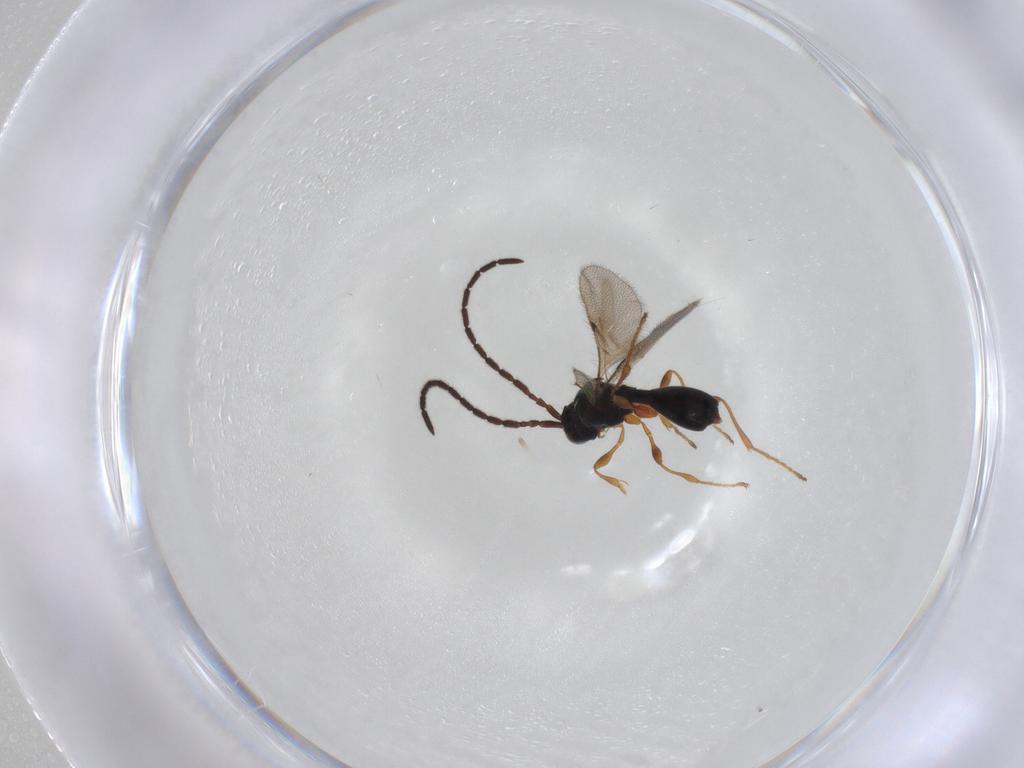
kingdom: Animalia
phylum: Arthropoda
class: Insecta
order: Hymenoptera
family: Diapriidae
